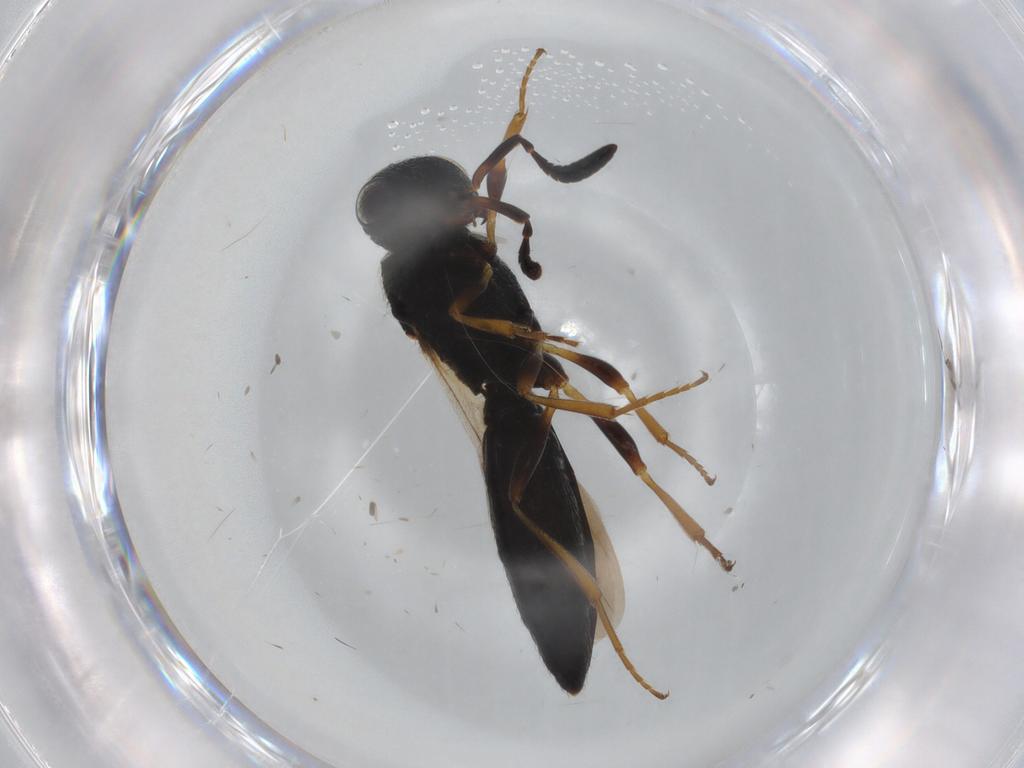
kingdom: Animalia
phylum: Arthropoda
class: Insecta
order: Hymenoptera
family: Scelionidae
